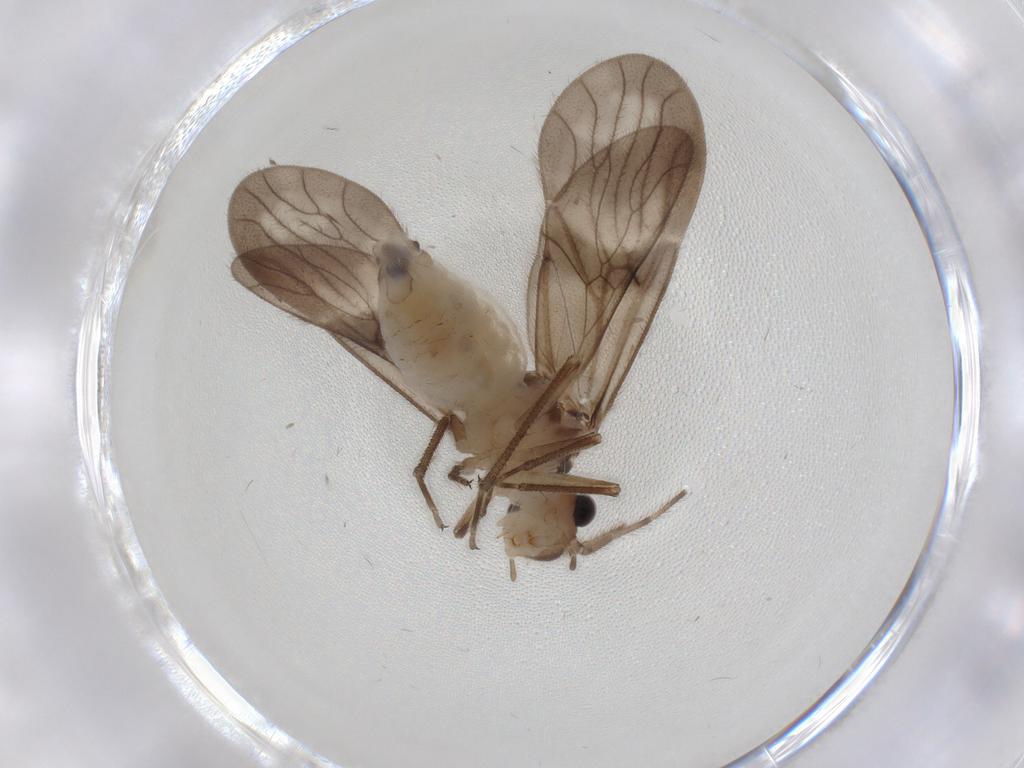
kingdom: Animalia
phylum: Arthropoda
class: Insecta
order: Psocodea
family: Amphipsocidae
